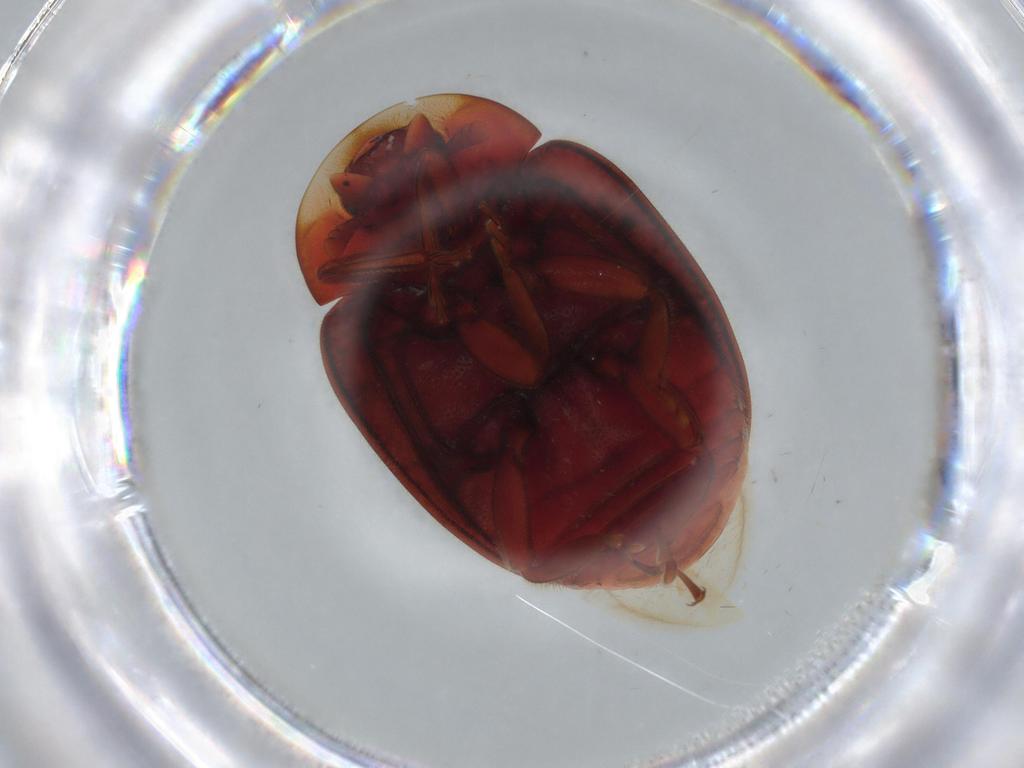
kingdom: Animalia
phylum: Arthropoda
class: Insecta
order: Coleoptera
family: Coccinellidae
